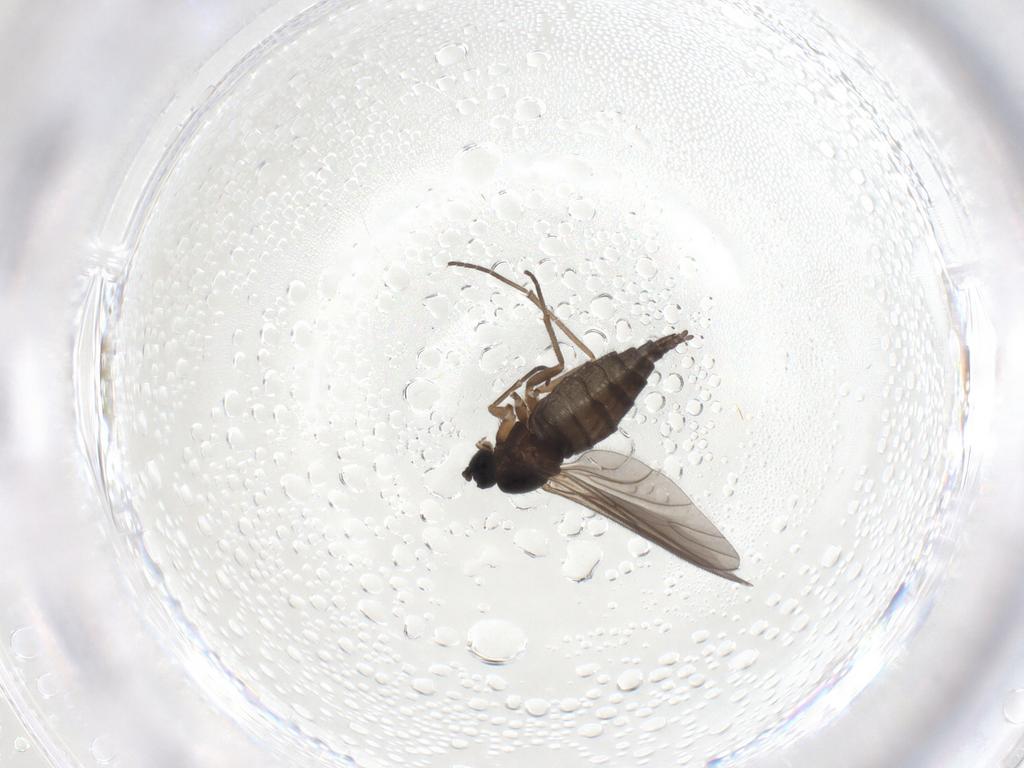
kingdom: Animalia
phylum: Arthropoda
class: Insecta
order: Diptera
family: Sciaridae
